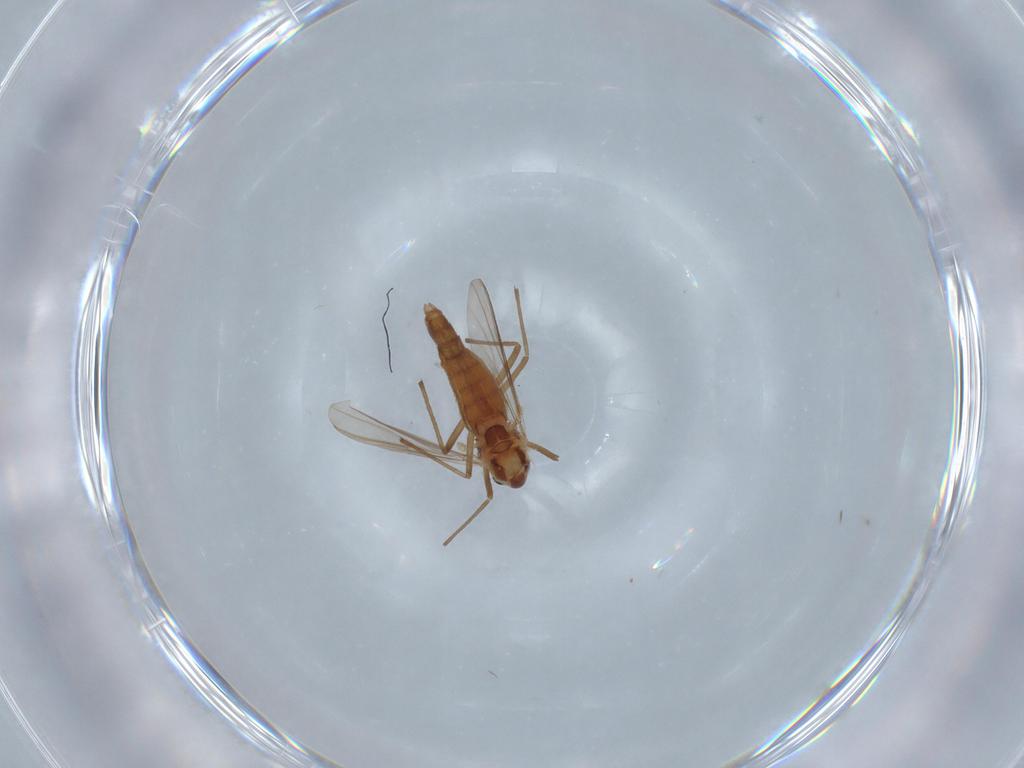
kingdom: Animalia
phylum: Arthropoda
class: Insecta
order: Diptera
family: Chironomidae
